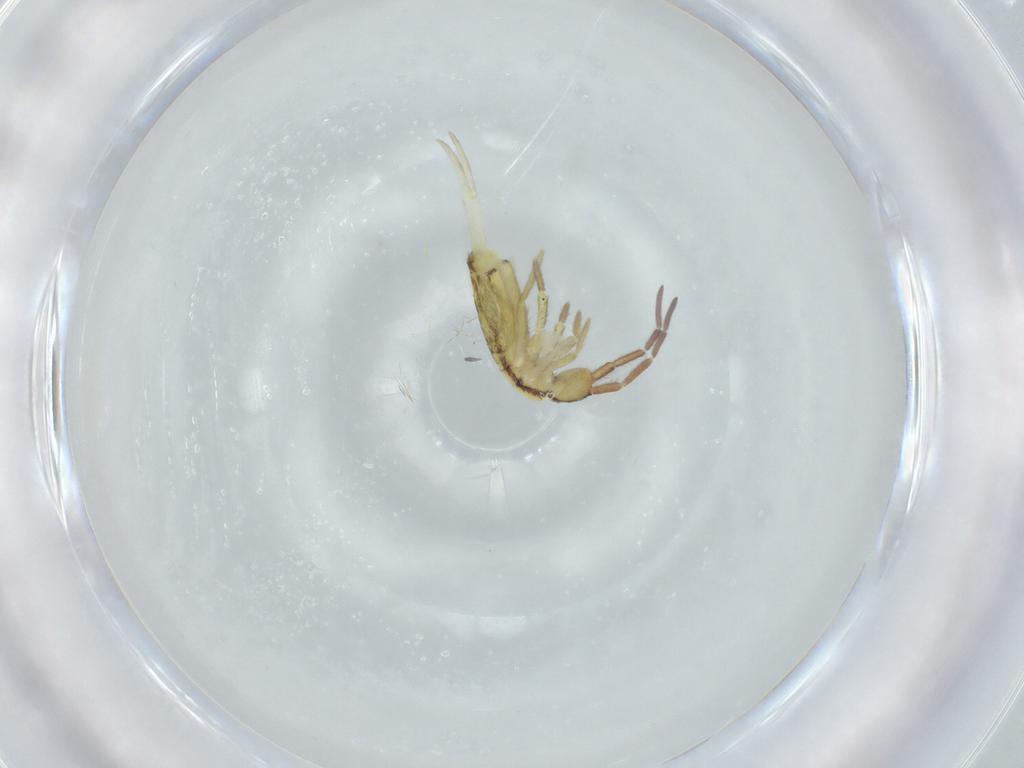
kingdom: Animalia
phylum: Arthropoda
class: Collembola
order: Entomobryomorpha
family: Entomobryidae
